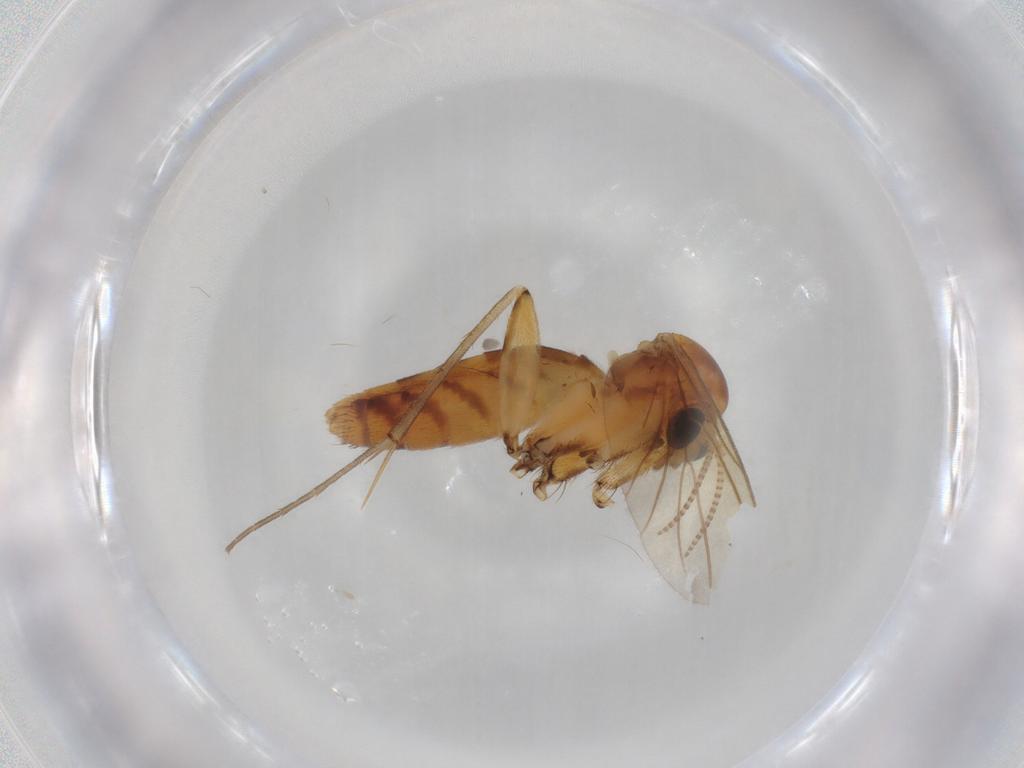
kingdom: Animalia
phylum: Arthropoda
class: Insecta
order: Diptera
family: Mycetophilidae
